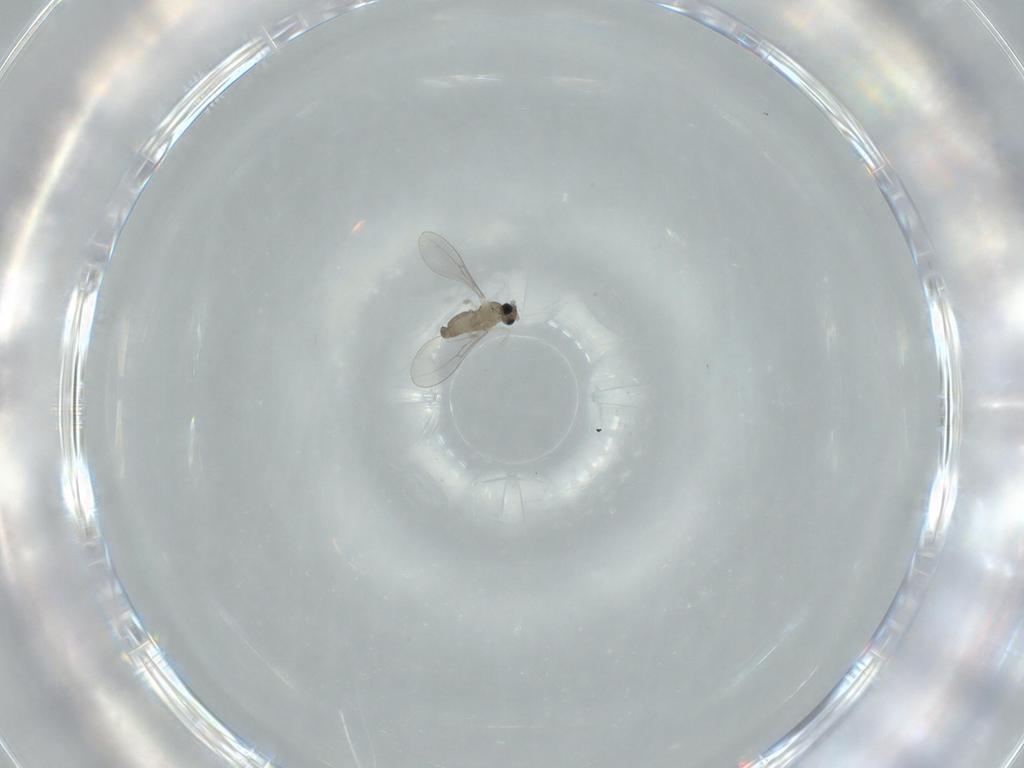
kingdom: Animalia
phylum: Arthropoda
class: Insecta
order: Diptera
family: Cecidomyiidae
